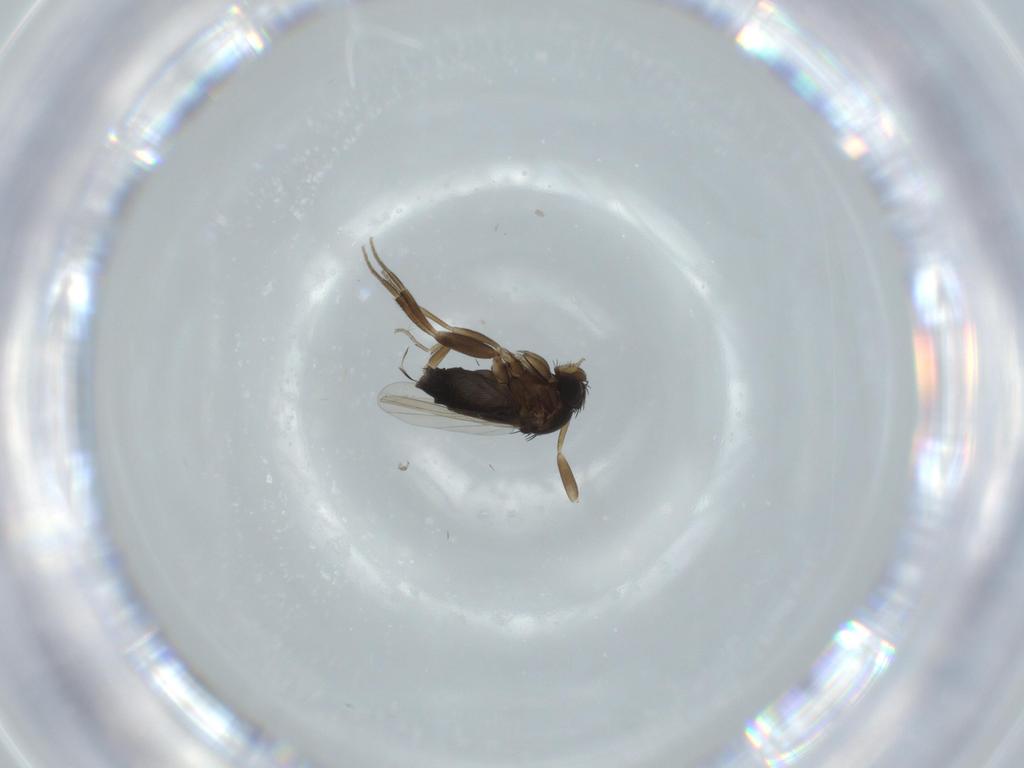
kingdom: Animalia
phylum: Arthropoda
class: Insecta
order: Diptera
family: Phoridae
